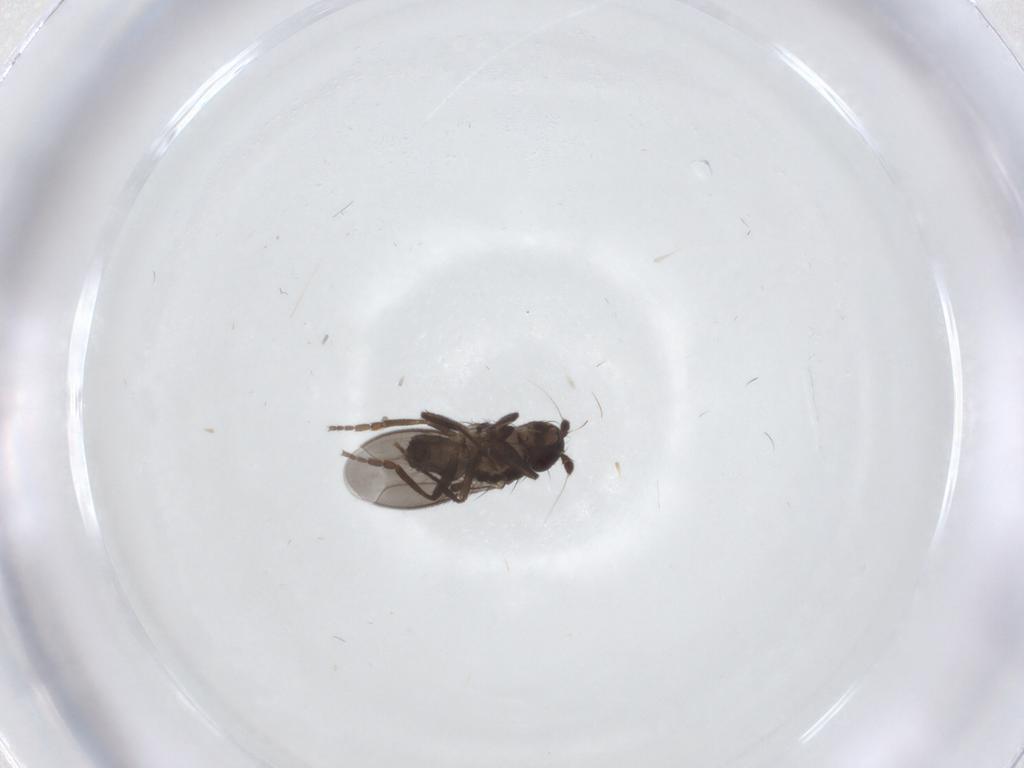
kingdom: Animalia
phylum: Arthropoda
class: Insecta
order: Diptera
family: Sphaeroceridae
